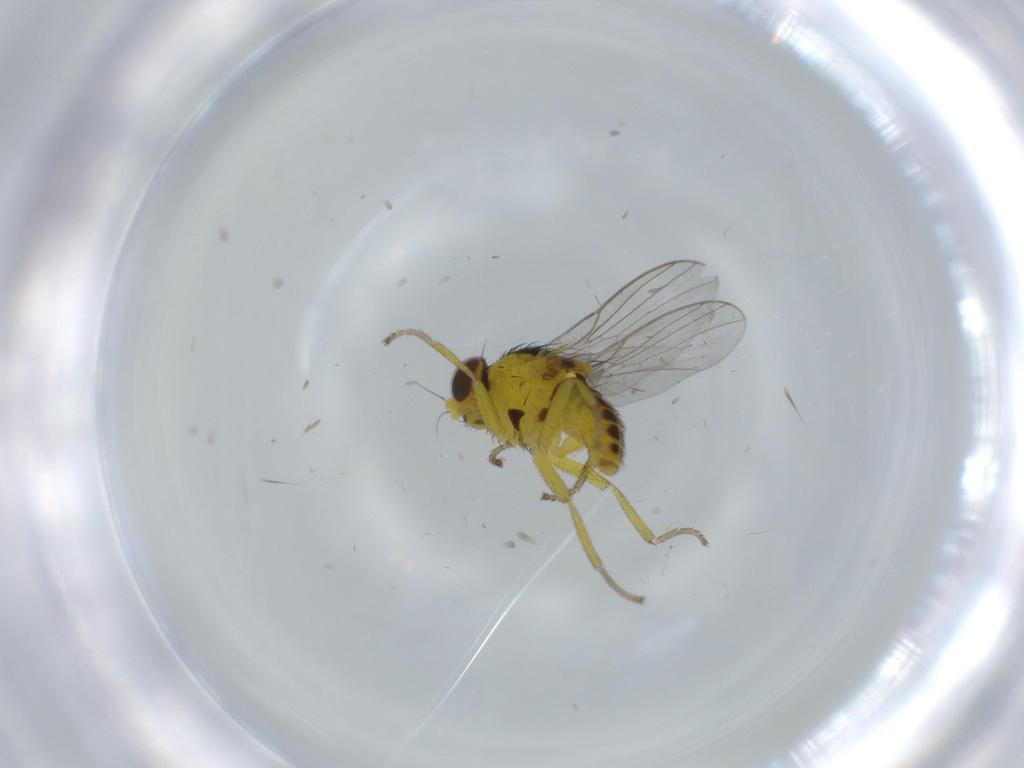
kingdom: Animalia
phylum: Arthropoda
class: Insecta
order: Diptera
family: Agromyzidae
